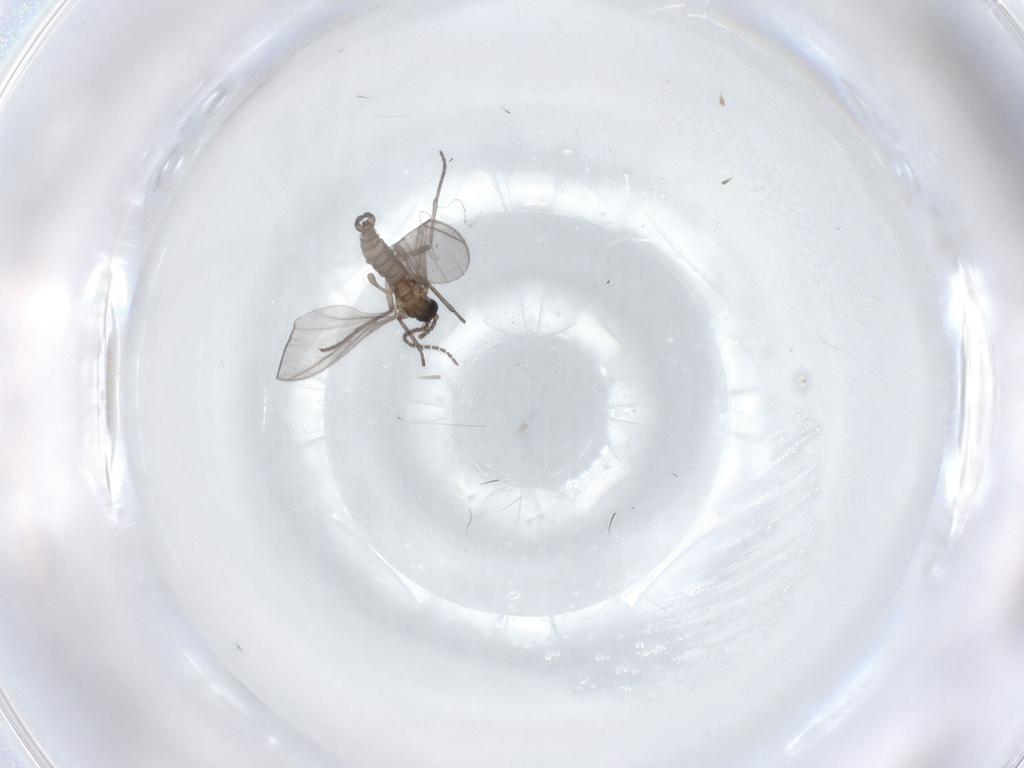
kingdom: Animalia
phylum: Arthropoda
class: Insecta
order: Diptera
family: Sciaridae
